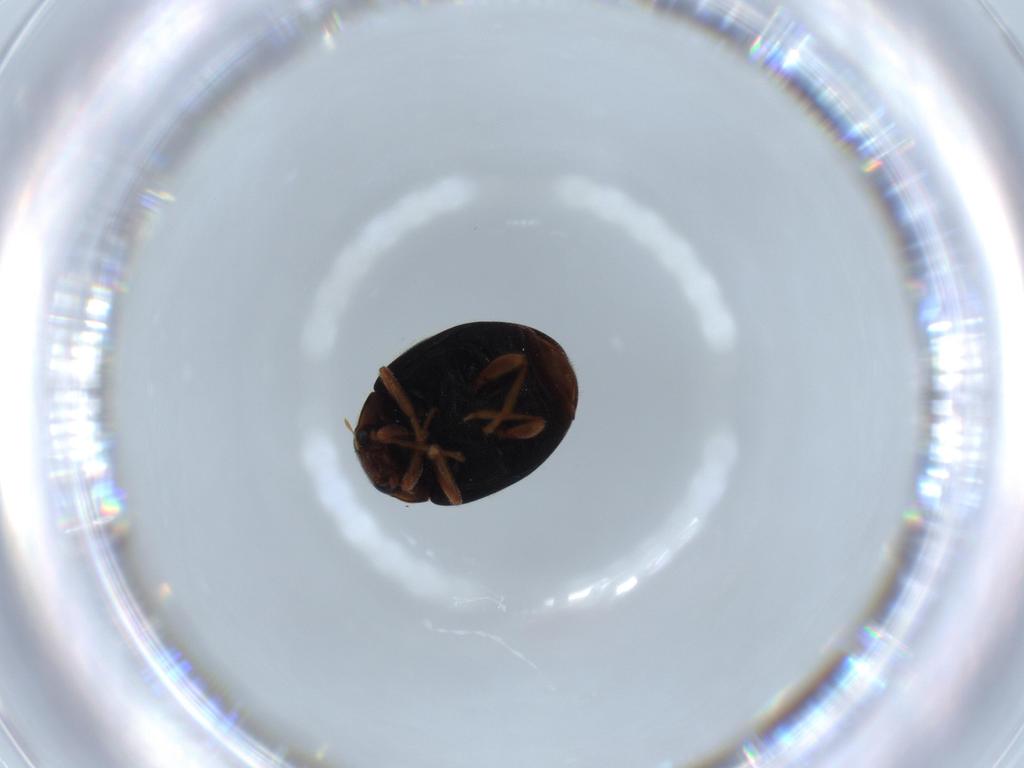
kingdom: Animalia
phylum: Arthropoda
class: Insecta
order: Coleoptera
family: Coccinellidae
